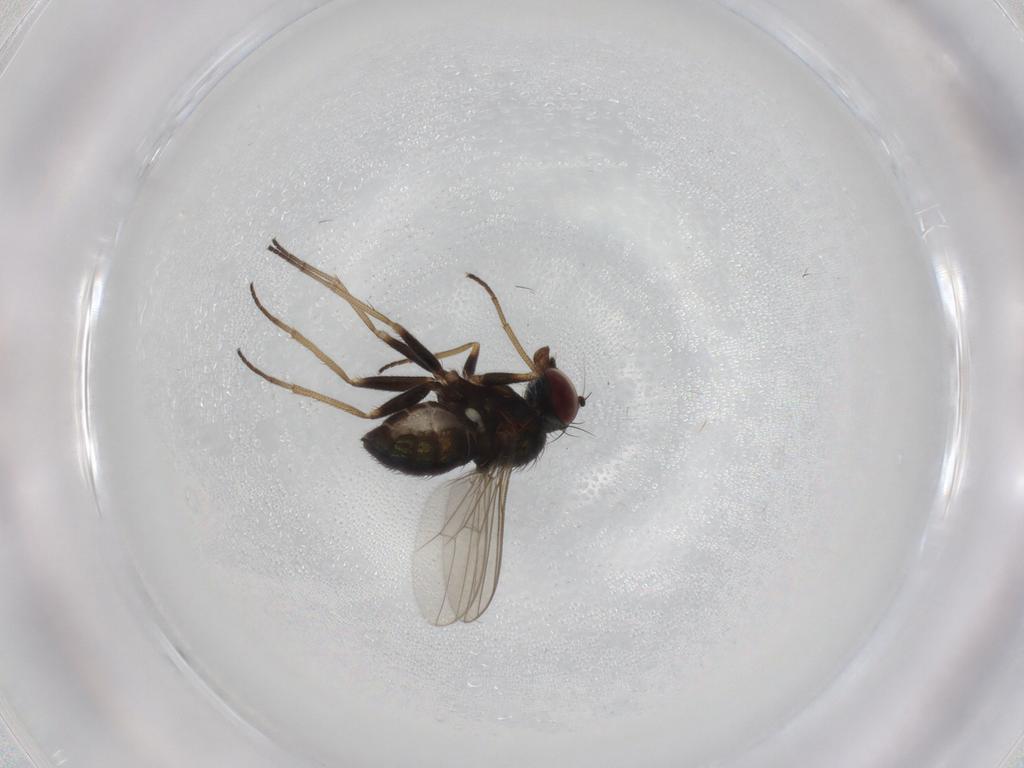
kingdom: Animalia
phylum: Arthropoda
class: Insecta
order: Diptera
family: Dolichopodidae
